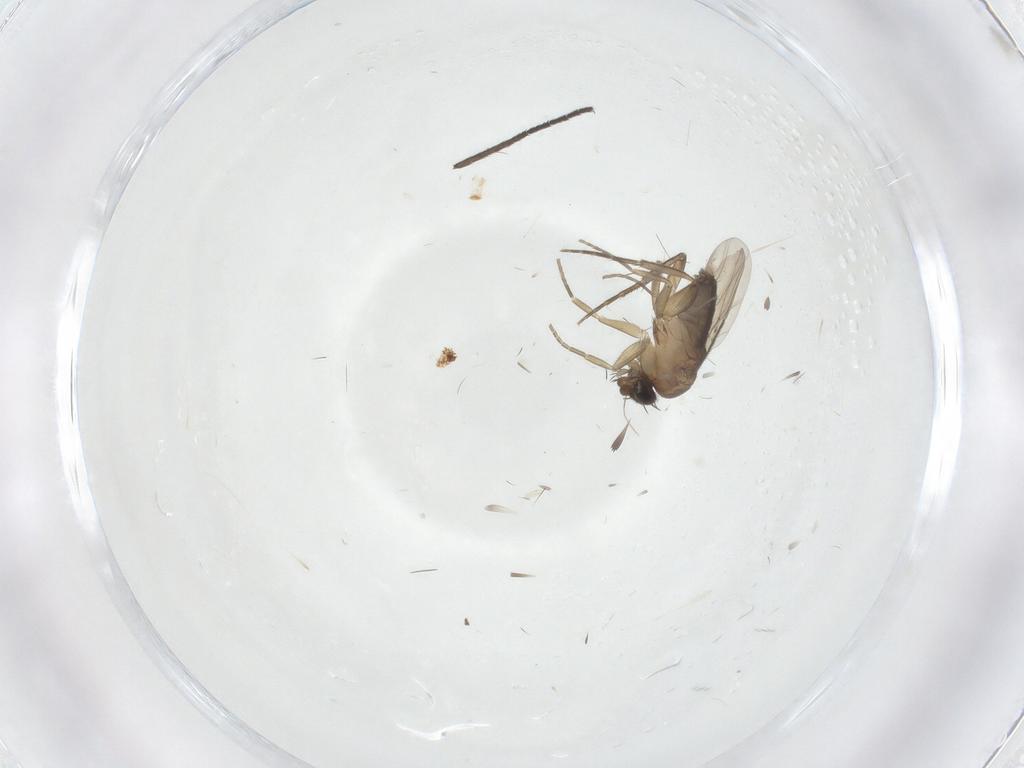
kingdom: Animalia
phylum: Arthropoda
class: Insecta
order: Diptera
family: Phoridae
